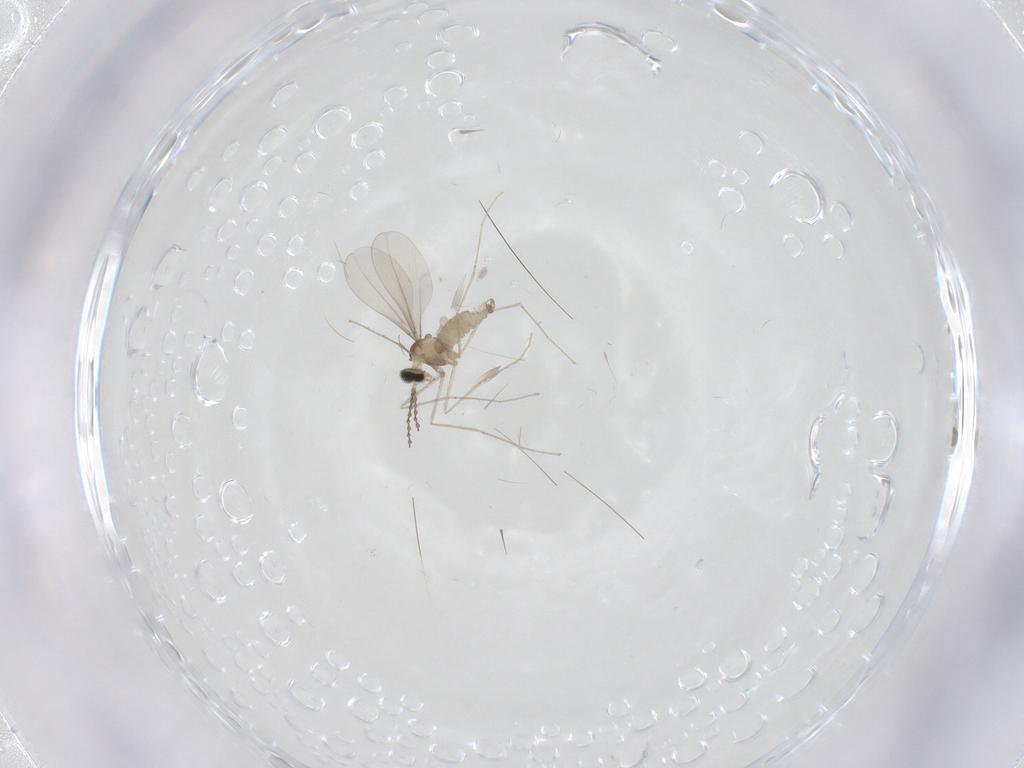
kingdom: Animalia
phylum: Arthropoda
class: Insecta
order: Diptera
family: Cecidomyiidae
